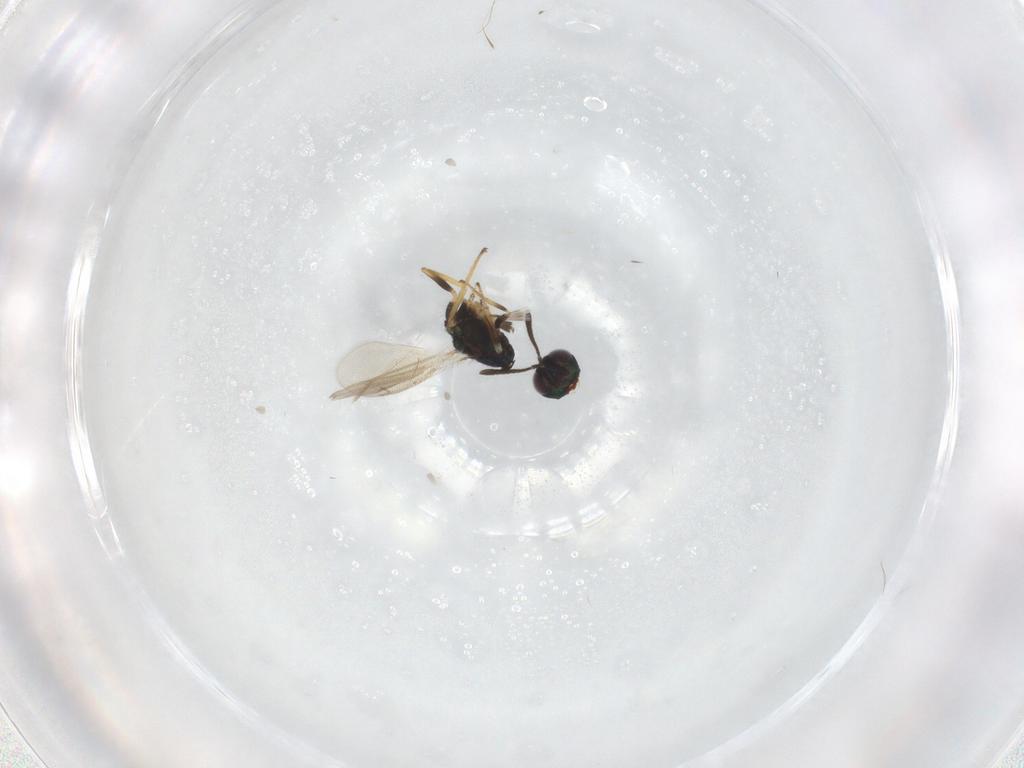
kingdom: Animalia
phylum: Arthropoda
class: Insecta
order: Hymenoptera
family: Eupelmidae
